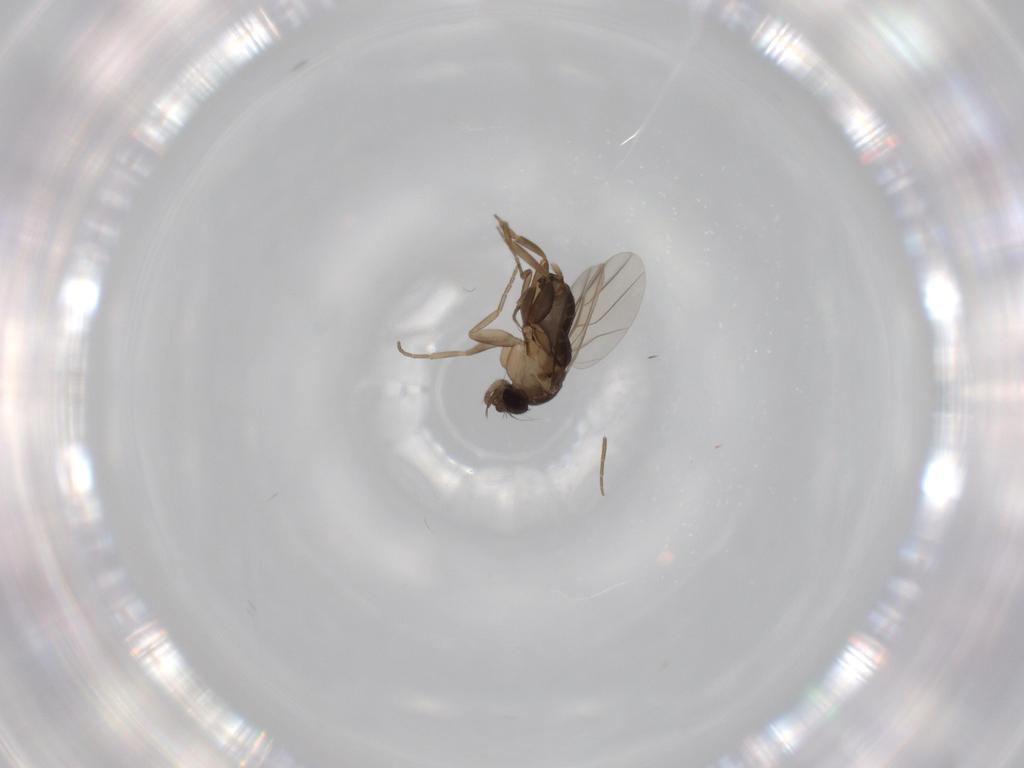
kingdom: Animalia
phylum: Arthropoda
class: Insecta
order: Diptera
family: Phoridae
